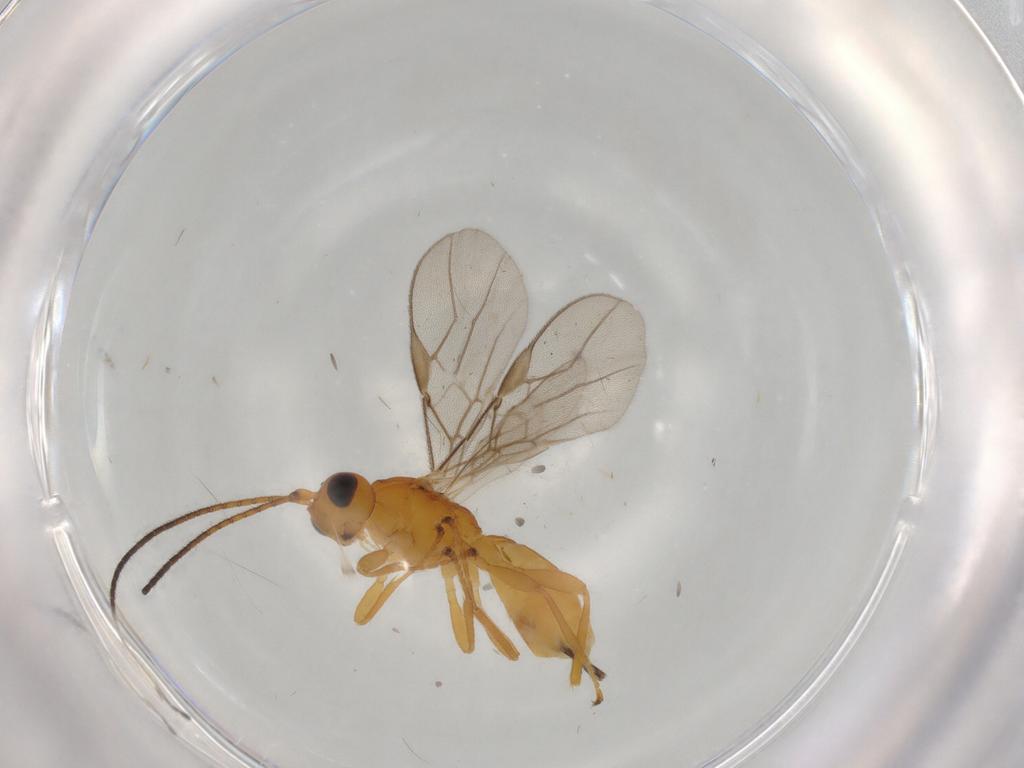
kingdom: Animalia
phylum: Arthropoda
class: Insecta
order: Hymenoptera
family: Braconidae
